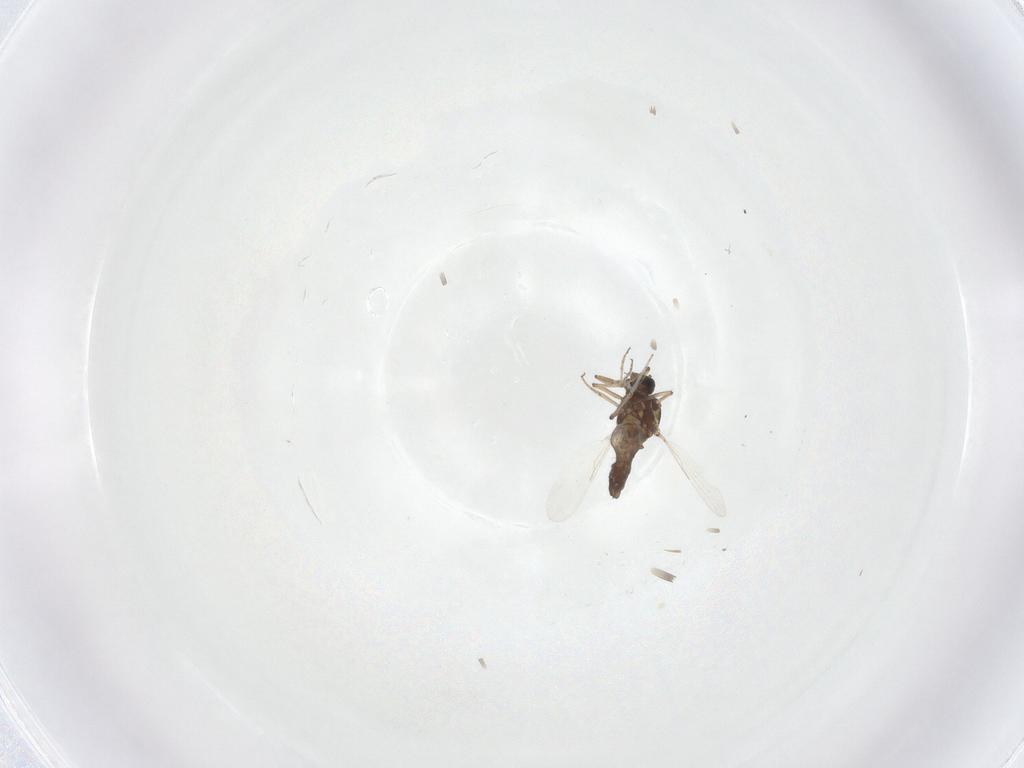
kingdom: Animalia
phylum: Arthropoda
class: Insecta
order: Diptera
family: Ceratopogonidae
